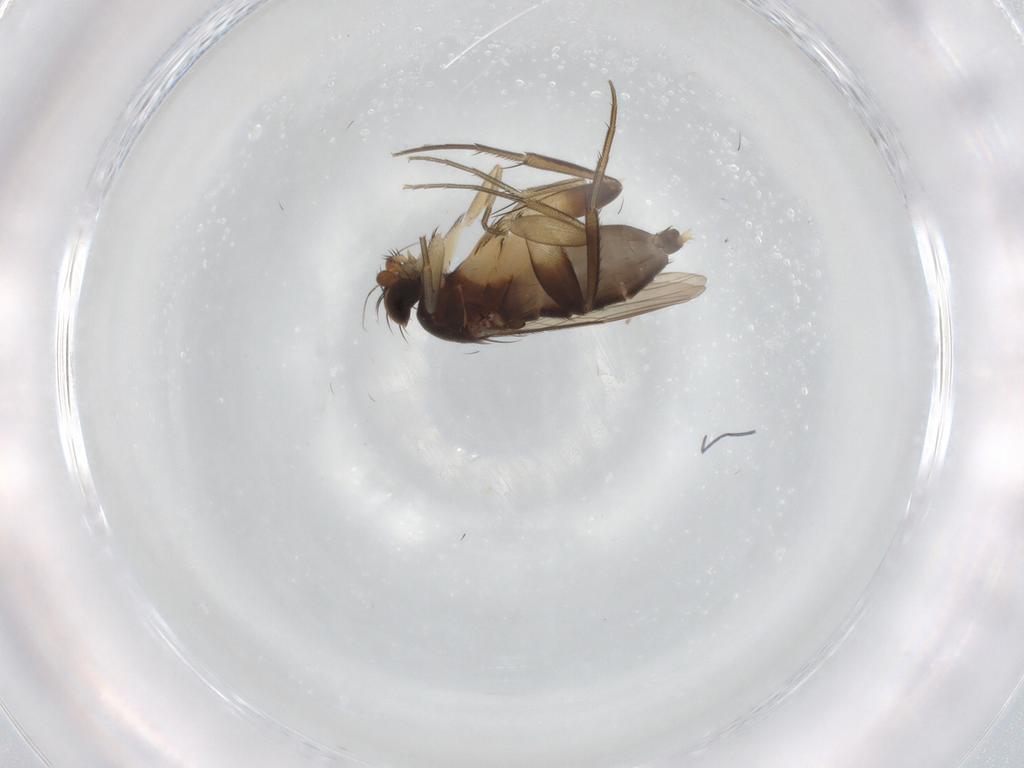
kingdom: Animalia
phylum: Arthropoda
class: Insecta
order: Diptera
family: Phoridae
